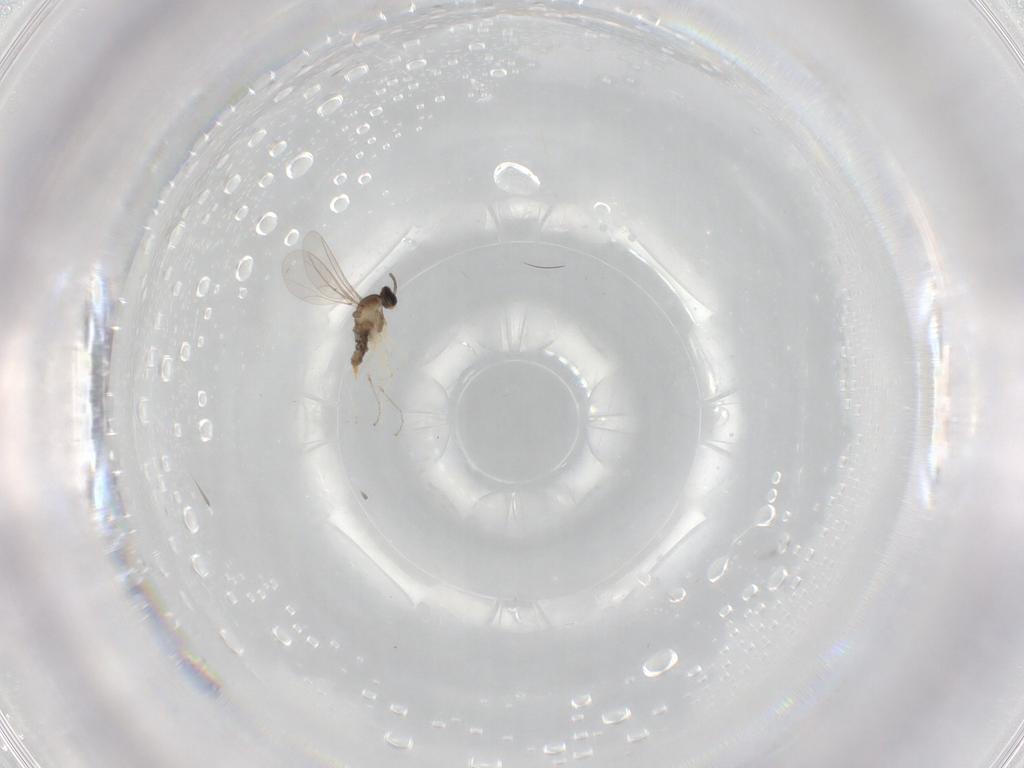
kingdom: Animalia
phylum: Arthropoda
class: Insecta
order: Diptera
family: Cecidomyiidae
